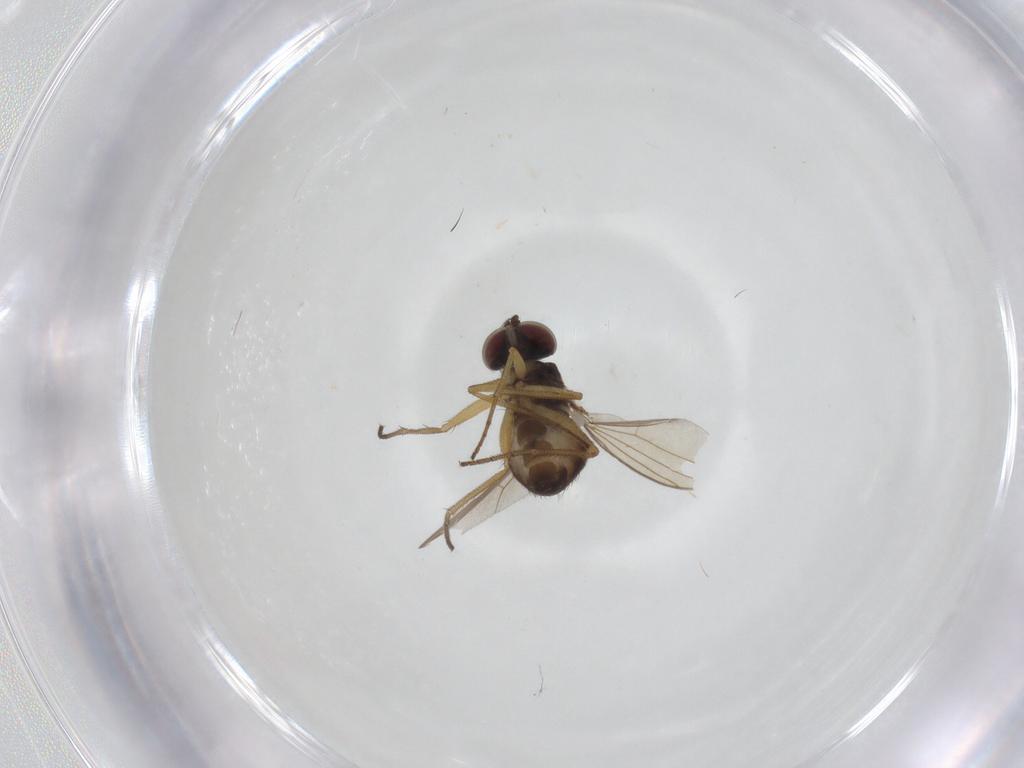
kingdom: Animalia
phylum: Arthropoda
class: Insecta
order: Diptera
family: Dolichopodidae
